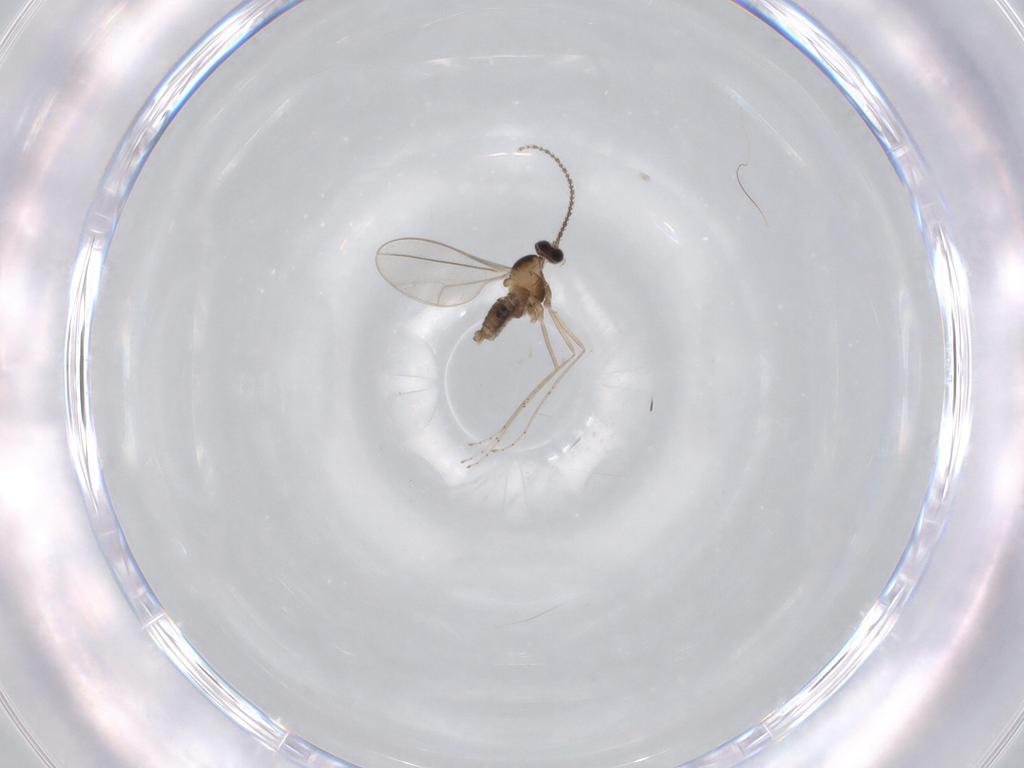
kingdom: Animalia
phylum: Arthropoda
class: Insecta
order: Diptera
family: Cecidomyiidae
